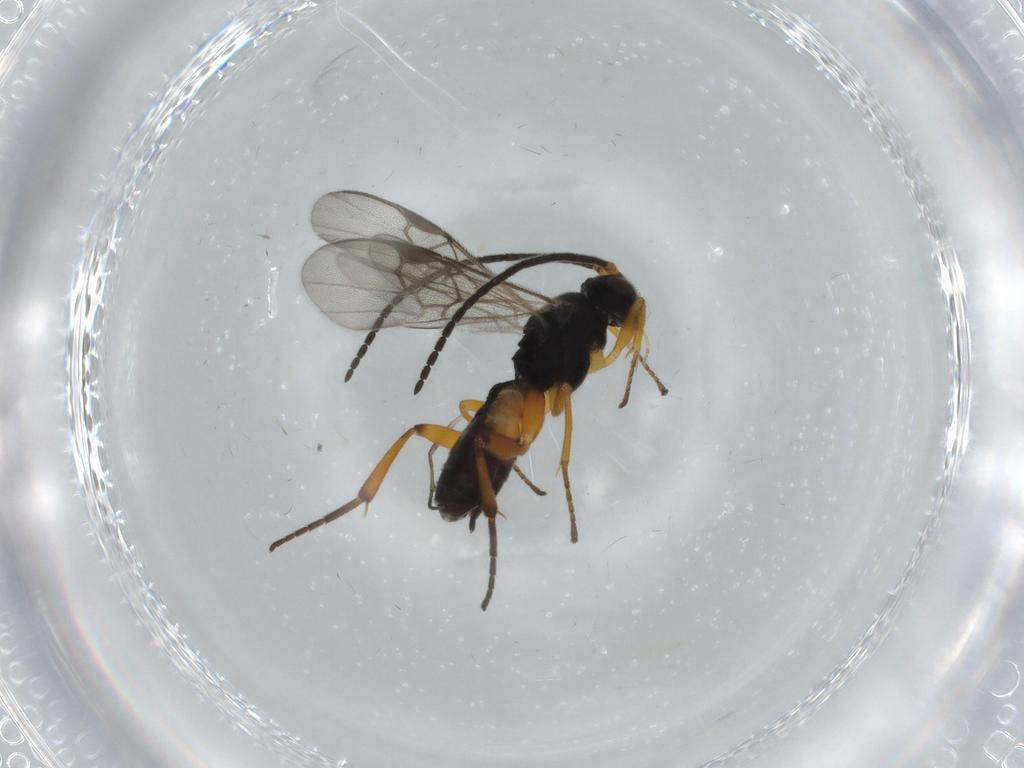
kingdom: Animalia
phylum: Arthropoda
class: Insecta
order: Hymenoptera
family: Braconidae
